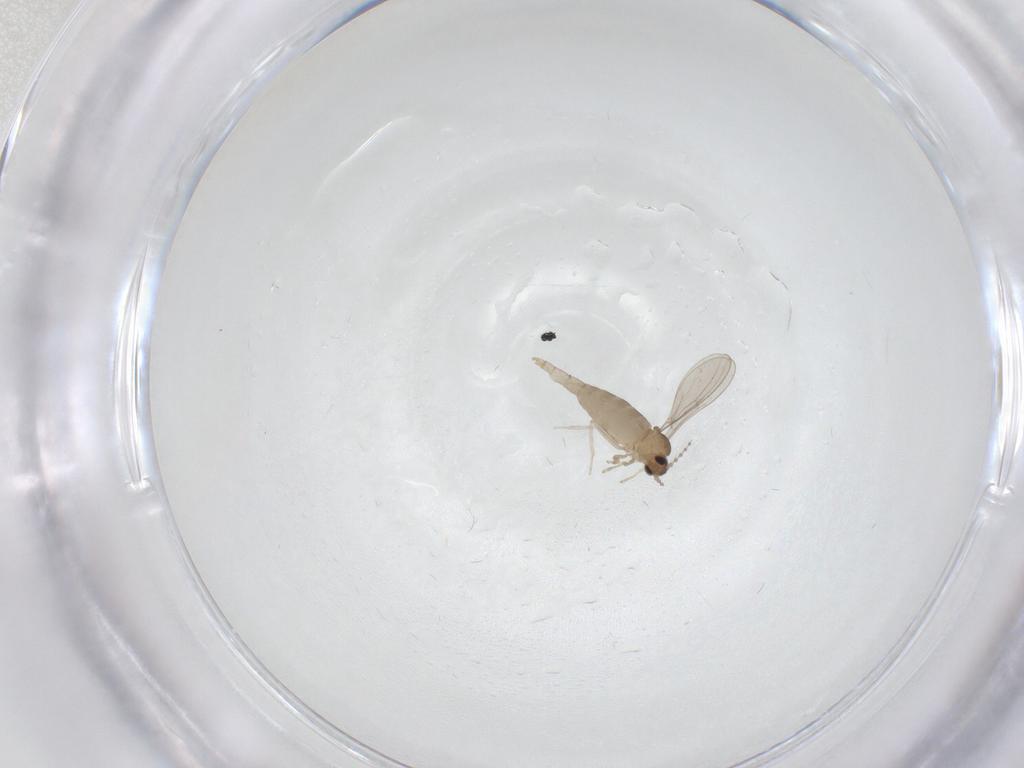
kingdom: Animalia
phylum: Arthropoda
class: Insecta
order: Diptera
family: Cecidomyiidae
